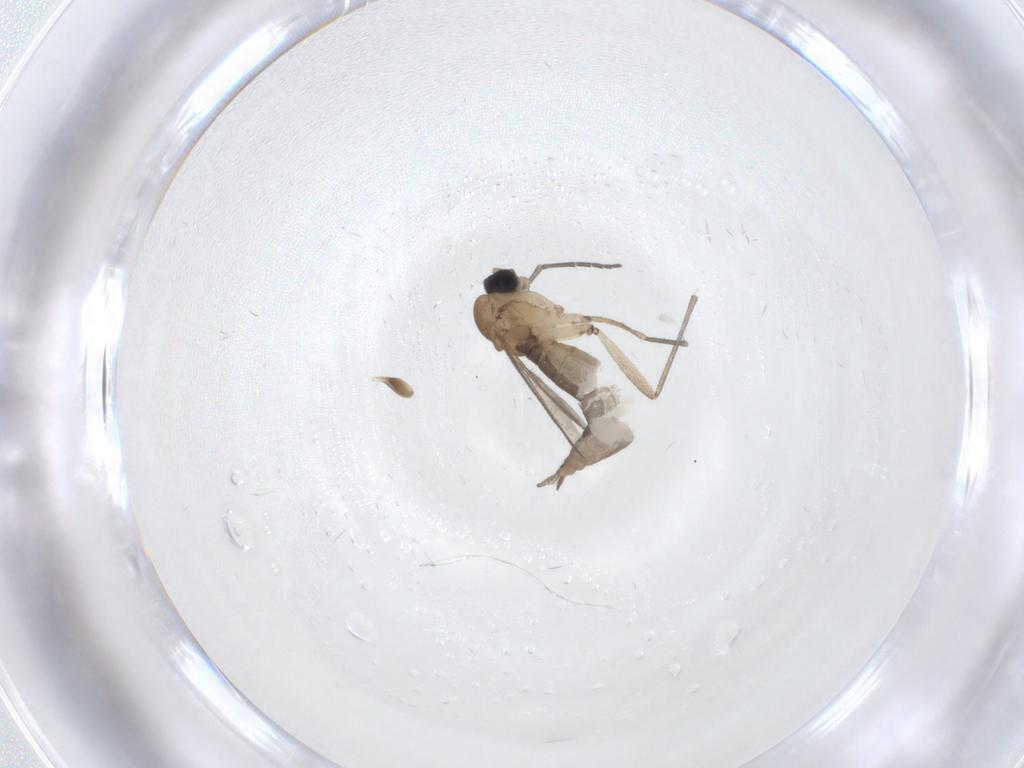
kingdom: Animalia
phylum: Arthropoda
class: Insecta
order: Diptera
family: Sciaridae
